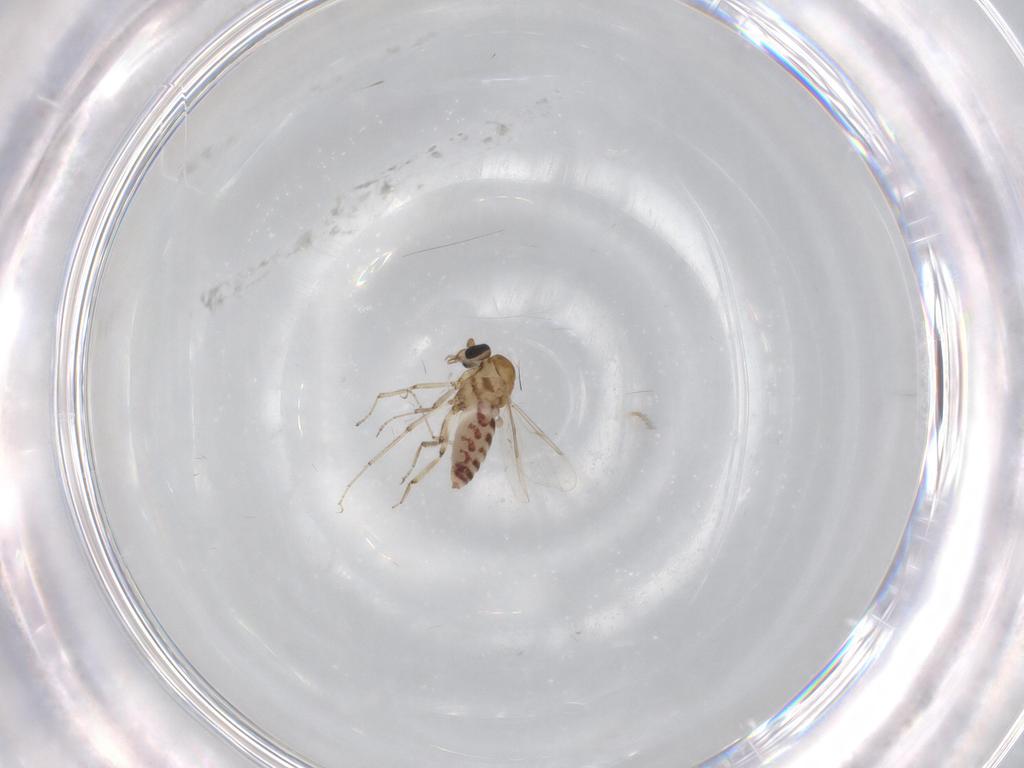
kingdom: Animalia
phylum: Arthropoda
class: Insecta
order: Diptera
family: Ceratopogonidae
